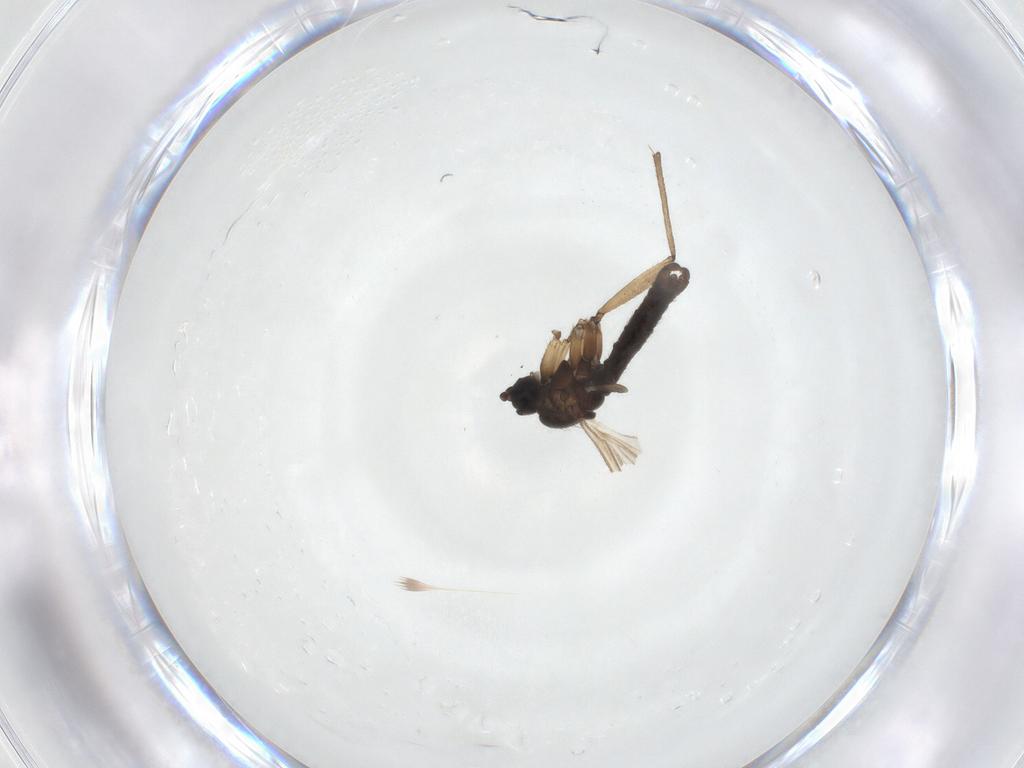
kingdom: Animalia
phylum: Arthropoda
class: Insecta
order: Diptera
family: Sciaridae
